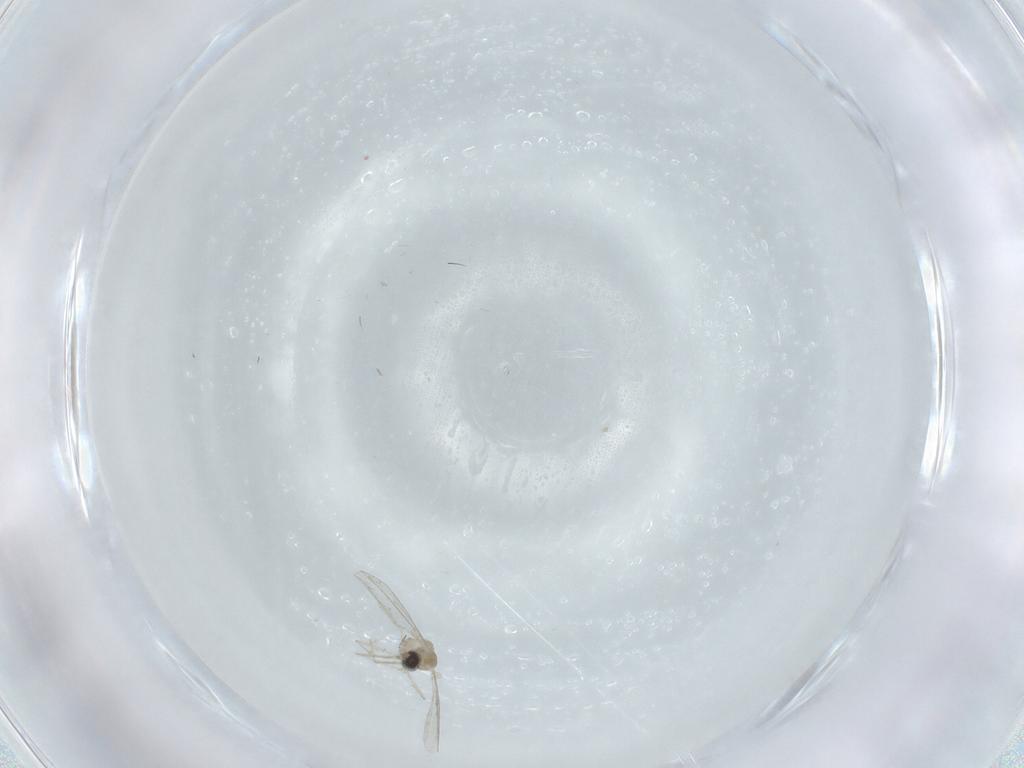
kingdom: Animalia
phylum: Arthropoda
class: Insecta
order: Diptera
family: Cecidomyiidae
